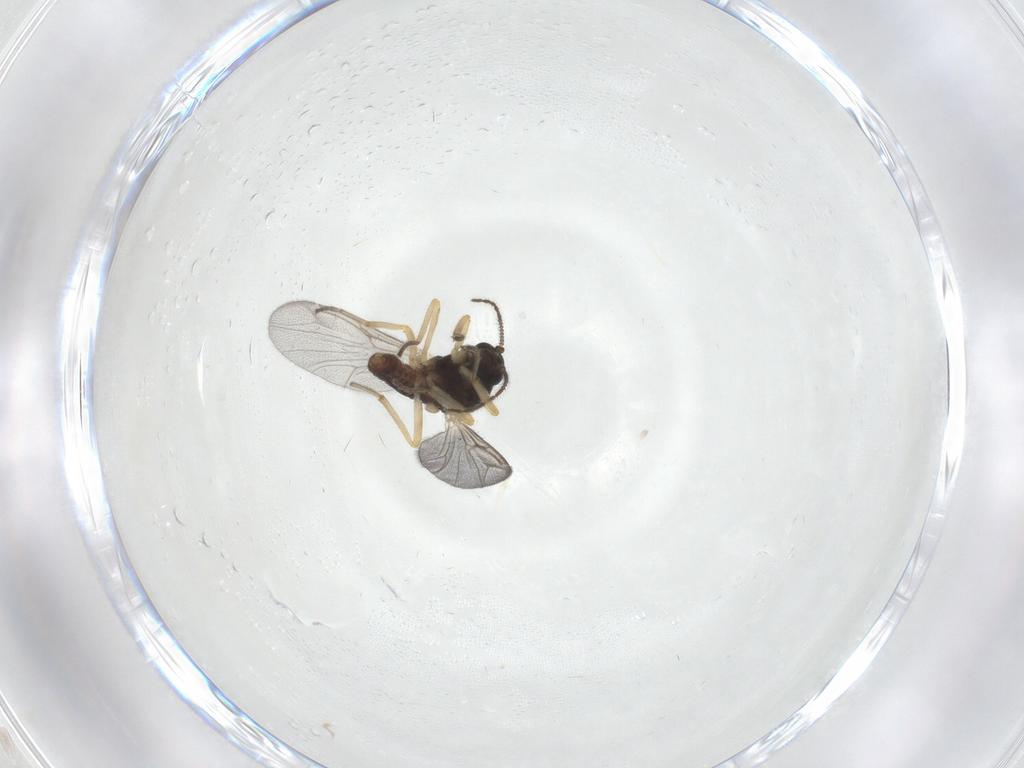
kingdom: Animalia
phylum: Arthropoda
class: Insecta
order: Diptera
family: Ceratopogonidae
